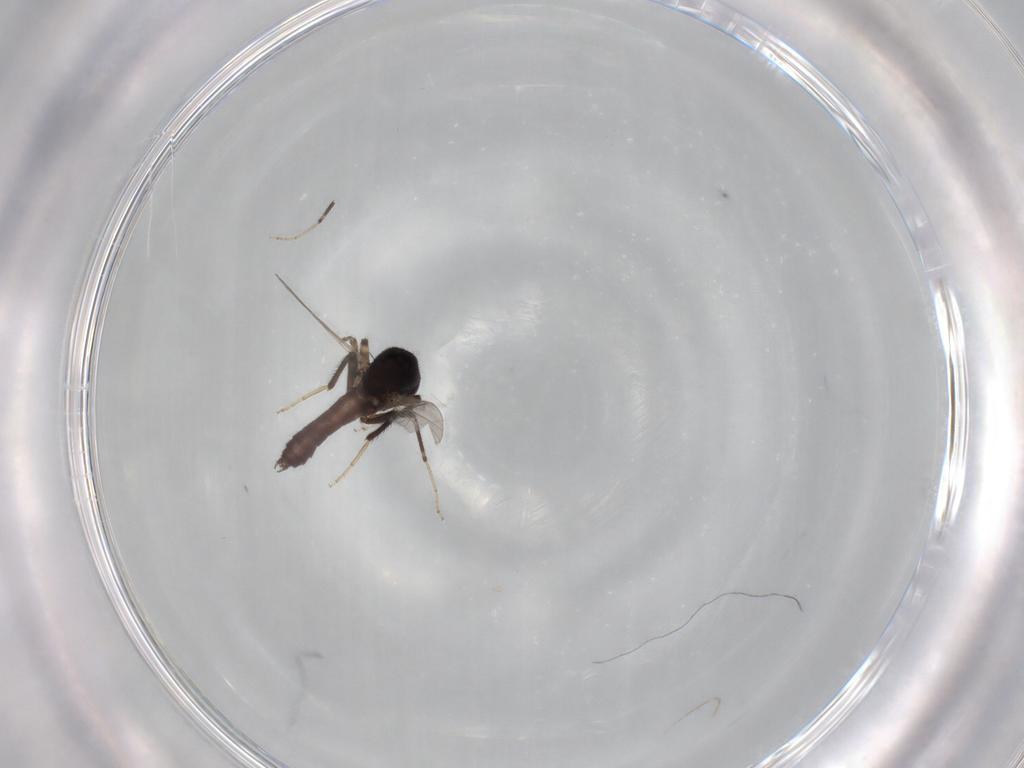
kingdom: Animalia
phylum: Arthropoda
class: Insecta
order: Diptera
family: Ceratopogonidae
